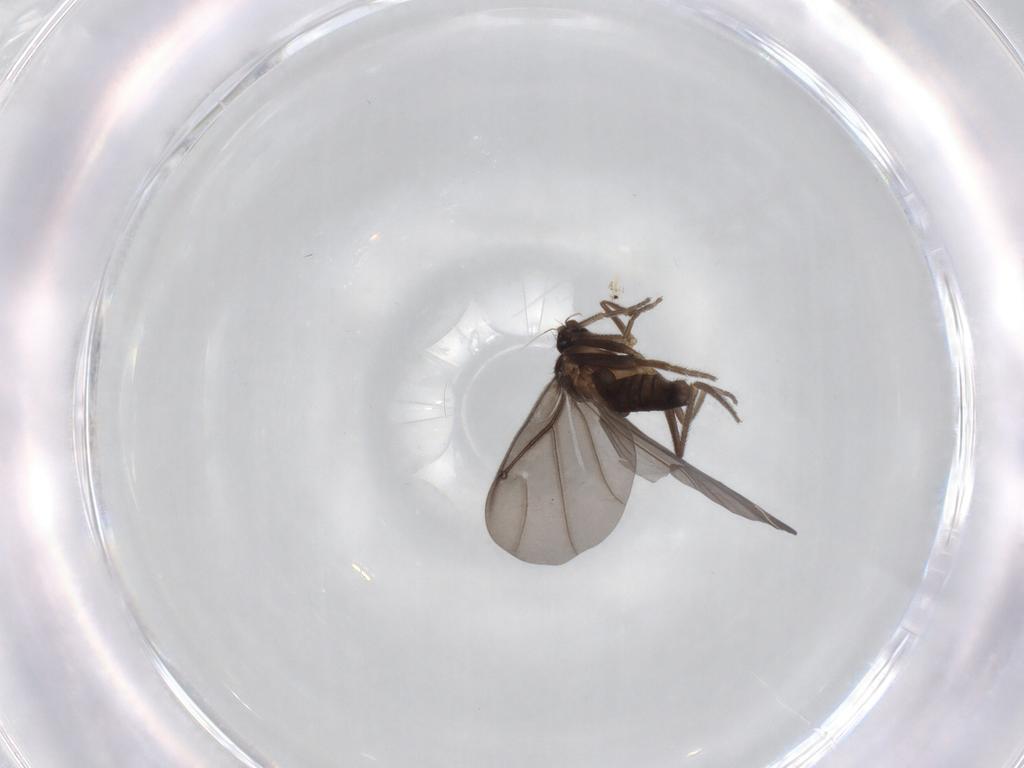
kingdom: Animalia
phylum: Arthropoda
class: Insecta
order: Diptera
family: Phoridae
